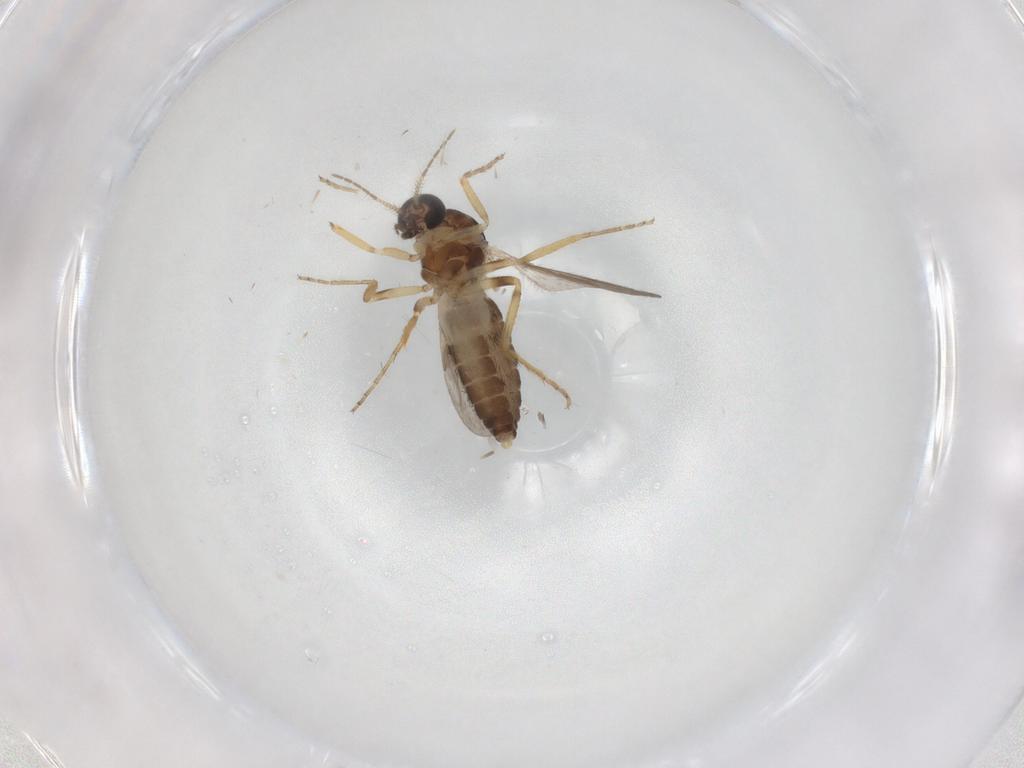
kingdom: Animalia
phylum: Arthropoda
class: Insecta
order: Diptera
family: Ceratopogonidae
